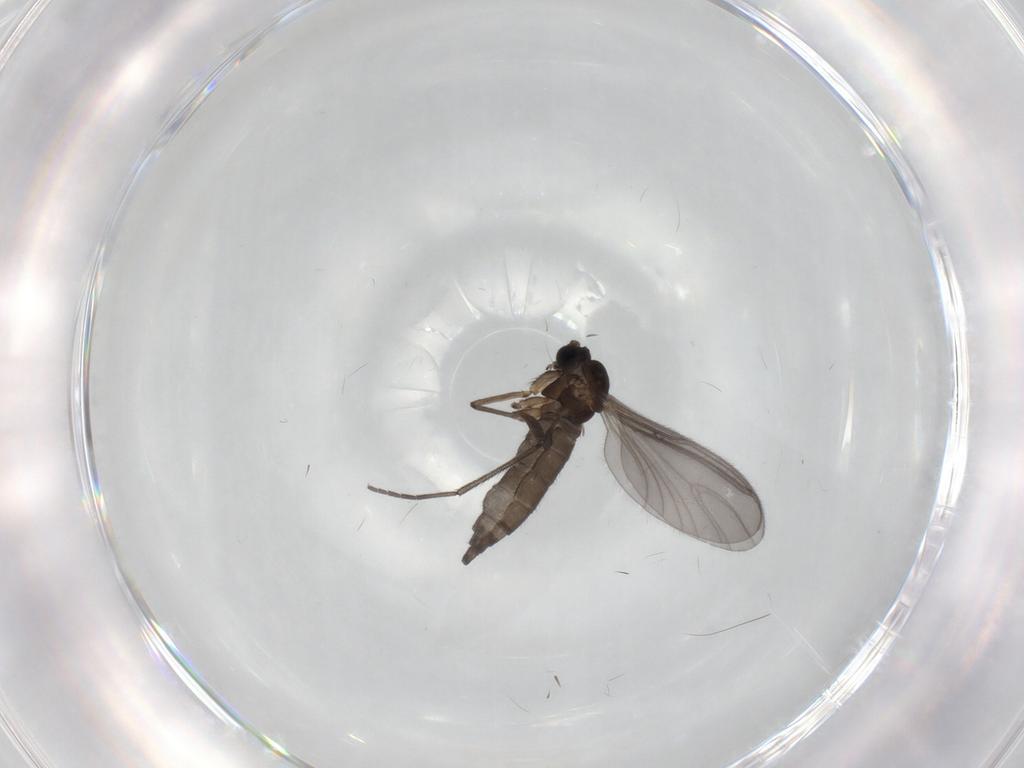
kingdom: Animalia
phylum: Arthropoda
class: Insecta
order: Diptera
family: Sciaridae
